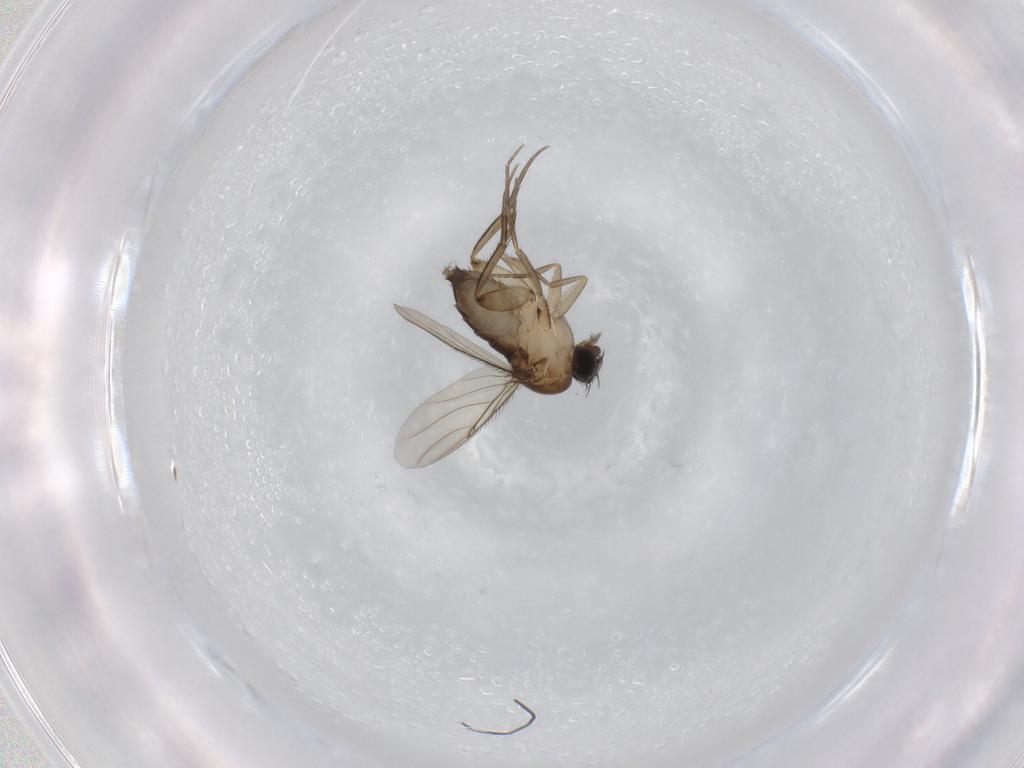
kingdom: Animalia
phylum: Arthropoda
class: Insecta
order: Diptera
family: Phoridae
